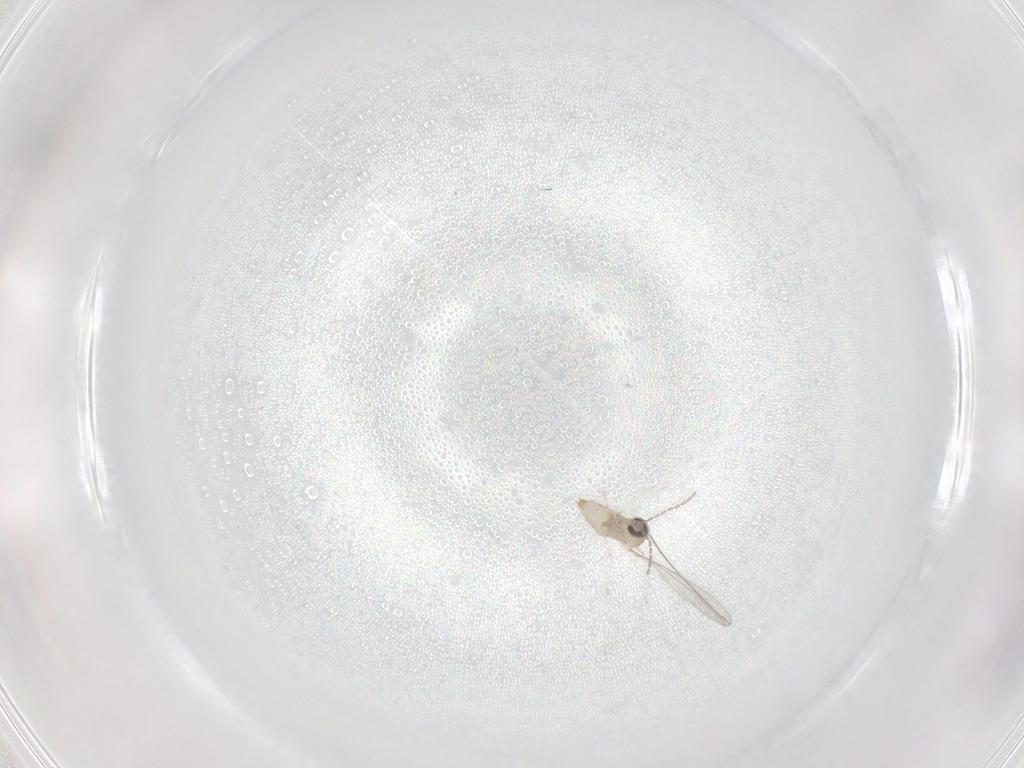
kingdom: Animalia
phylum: Arthropoda
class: Insecta
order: Diptera
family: Cecidomyiidae
